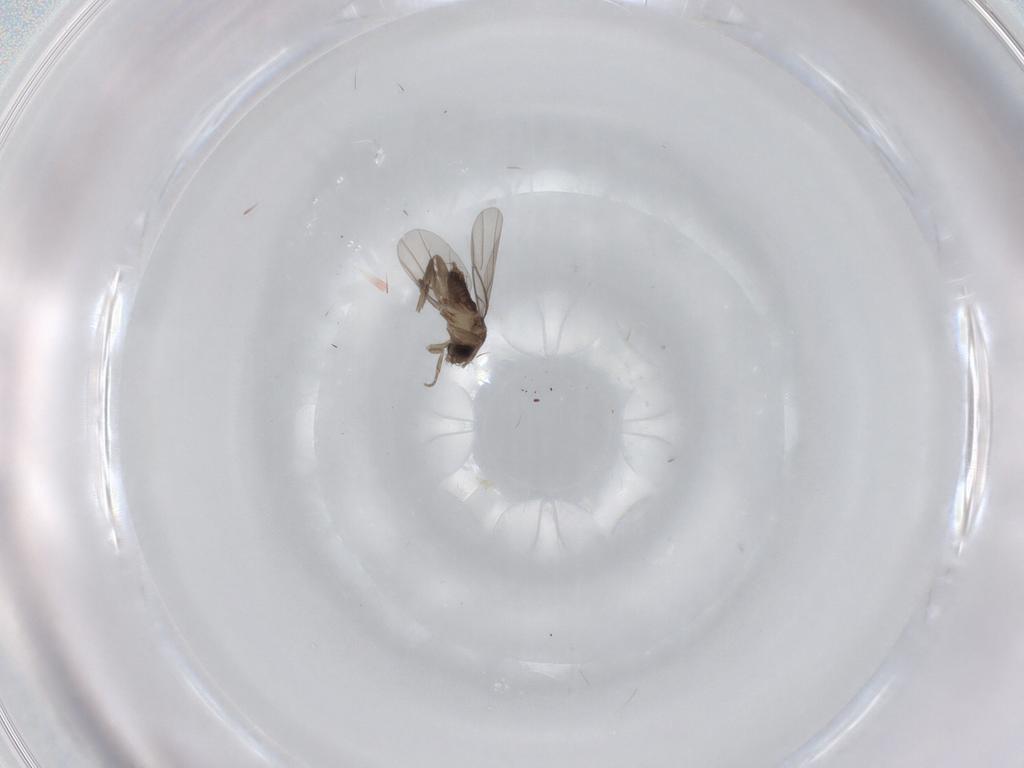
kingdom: Animalia
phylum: Arthropoda
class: Insecta
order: Diptera
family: Phoridae
